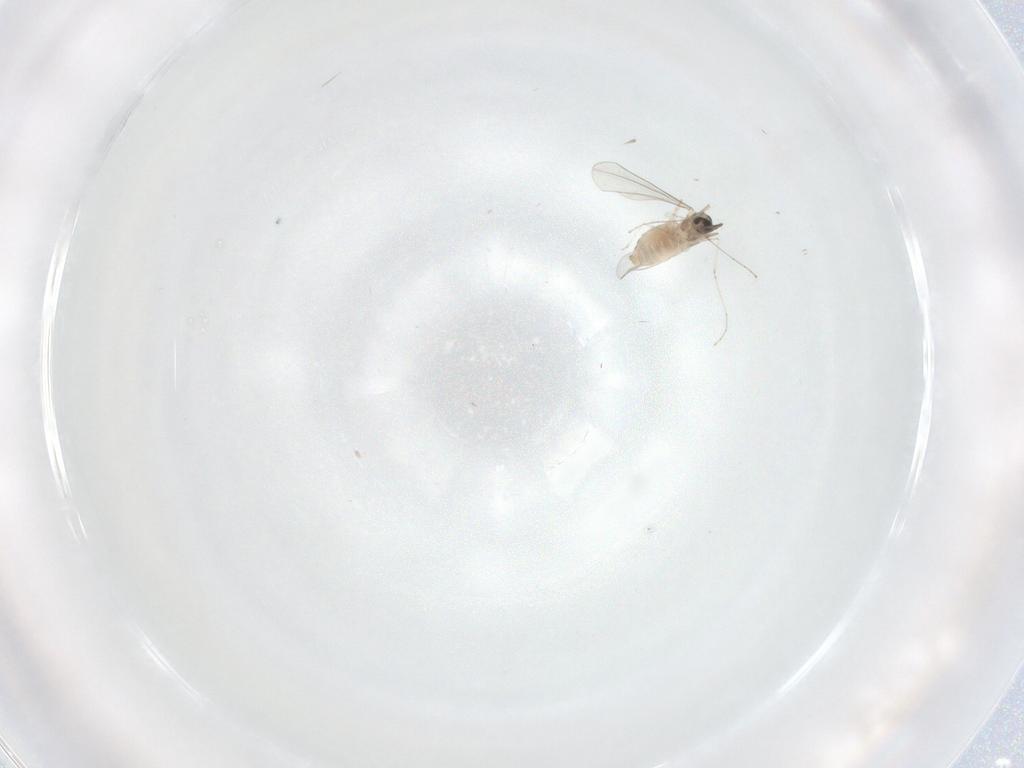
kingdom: Animalia
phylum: Arthropoda
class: Insecta
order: Diptera
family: Cecidomyiidae
